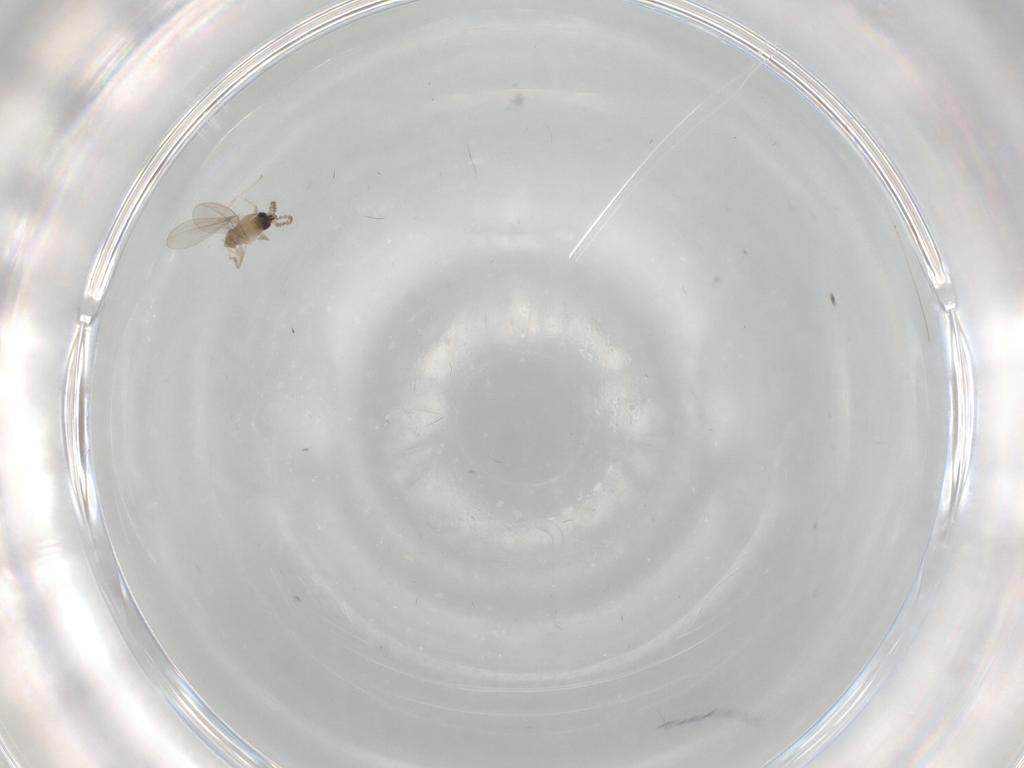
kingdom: Animalia
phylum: Arthropoda
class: Insecta
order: Diptera
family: Cecidomyiidae
